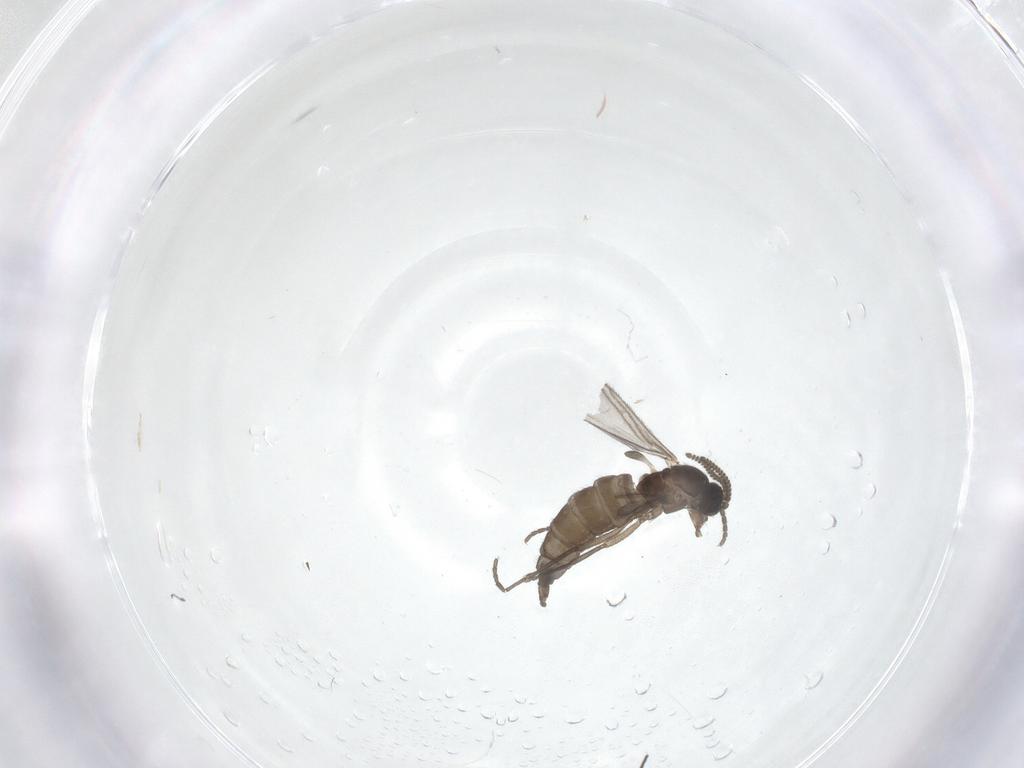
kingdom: Animalia
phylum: Arthropoda
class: Insecta
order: Diptera
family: Sciaridae
